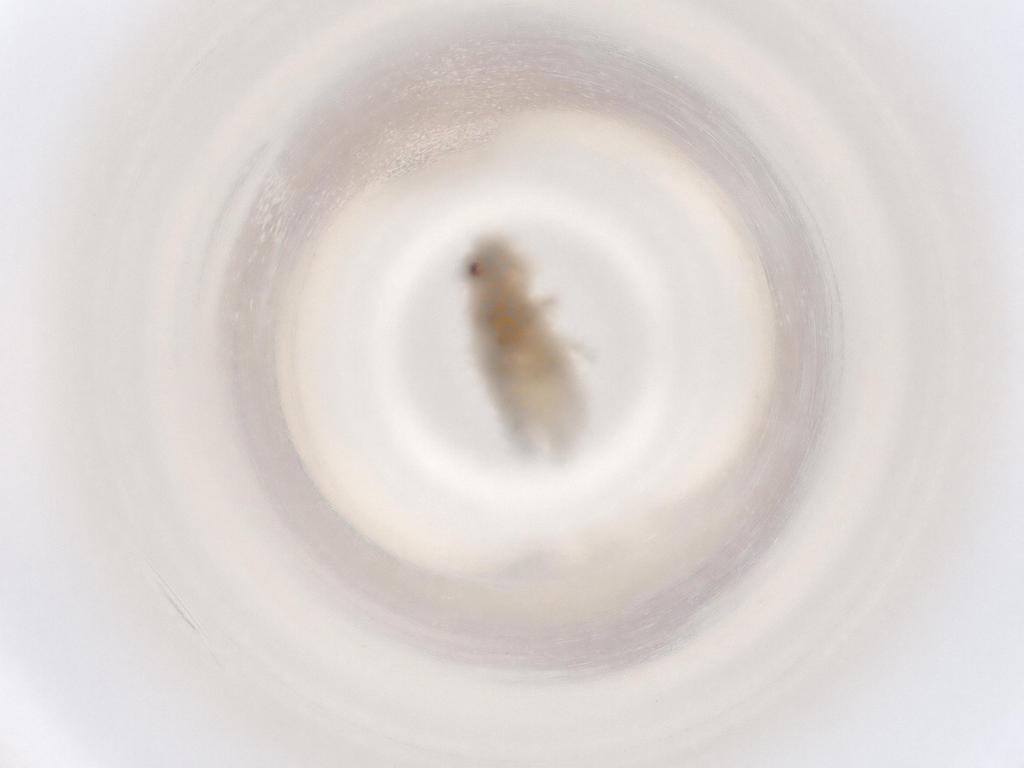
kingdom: Animalia
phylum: Arthropoda
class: Insecta
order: Diptera
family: Chloropidae
